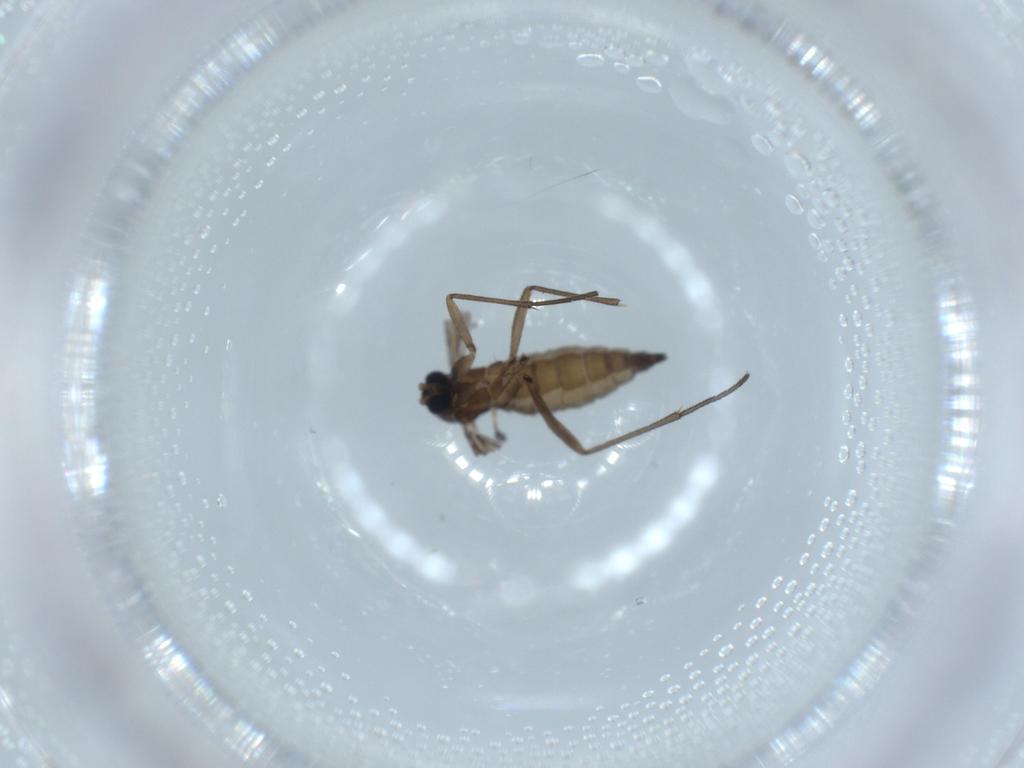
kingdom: Animalia
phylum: Arthropoda
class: Insecta
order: Diptera
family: Sciaridae
